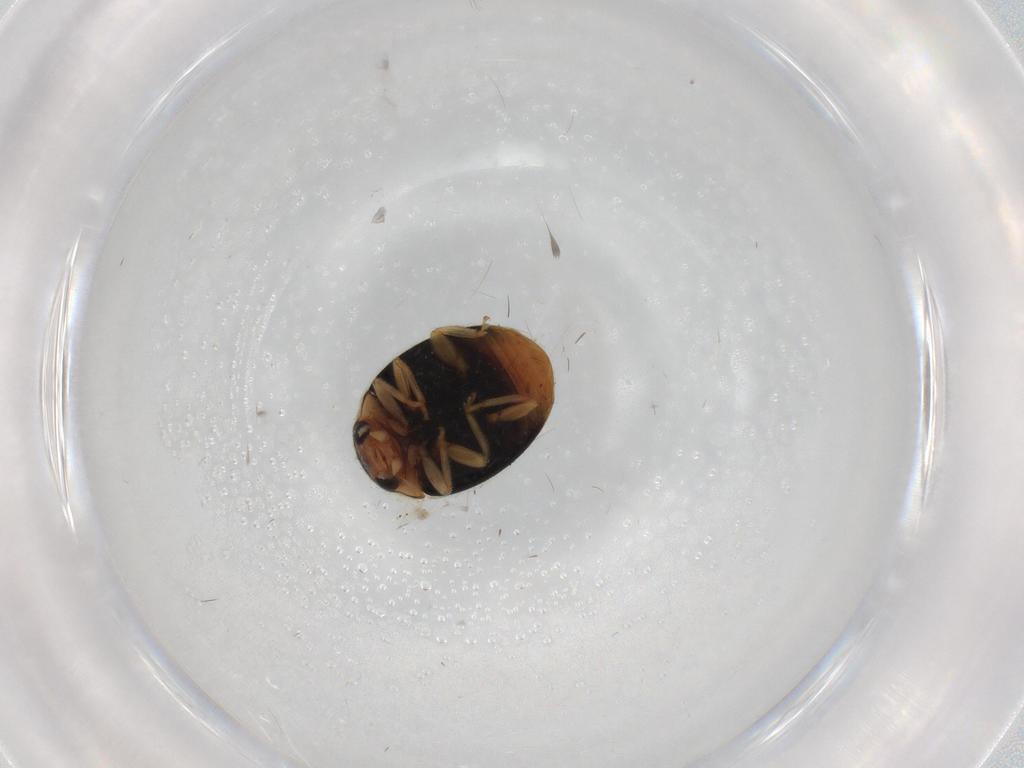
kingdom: Animalia
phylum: Arthropoda
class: Insecta
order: Coleoptera
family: Coccinellidae
